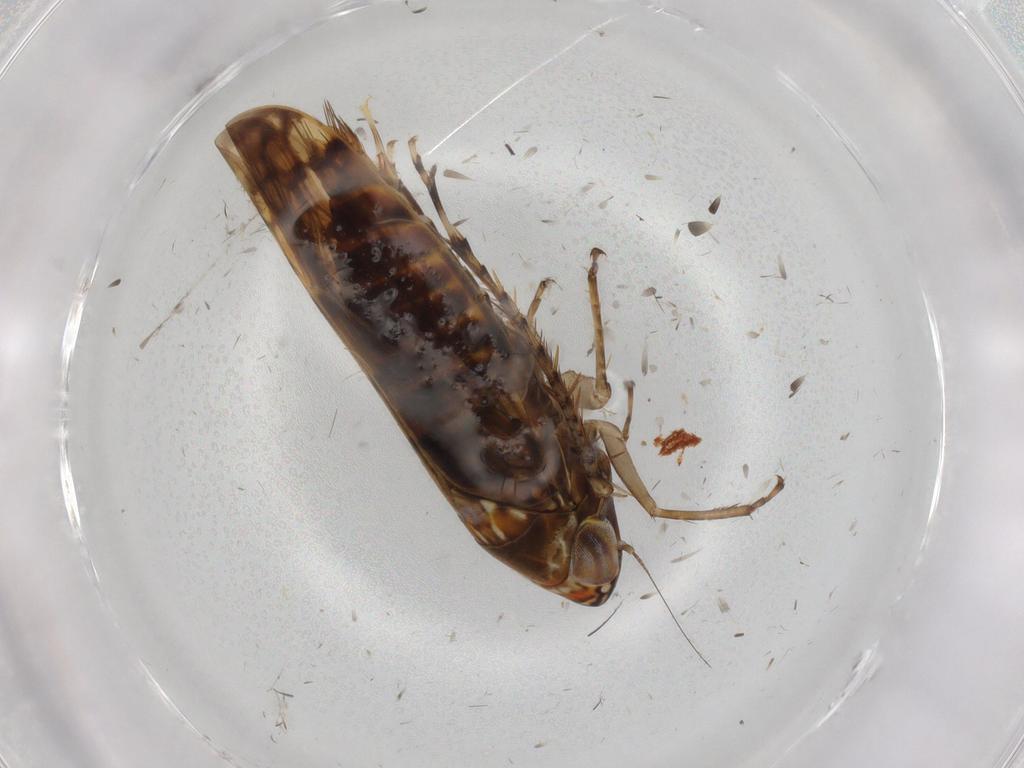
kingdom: Animalia
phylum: Arthropoda
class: Insecta
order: Hemiptera
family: Cicadellidae
